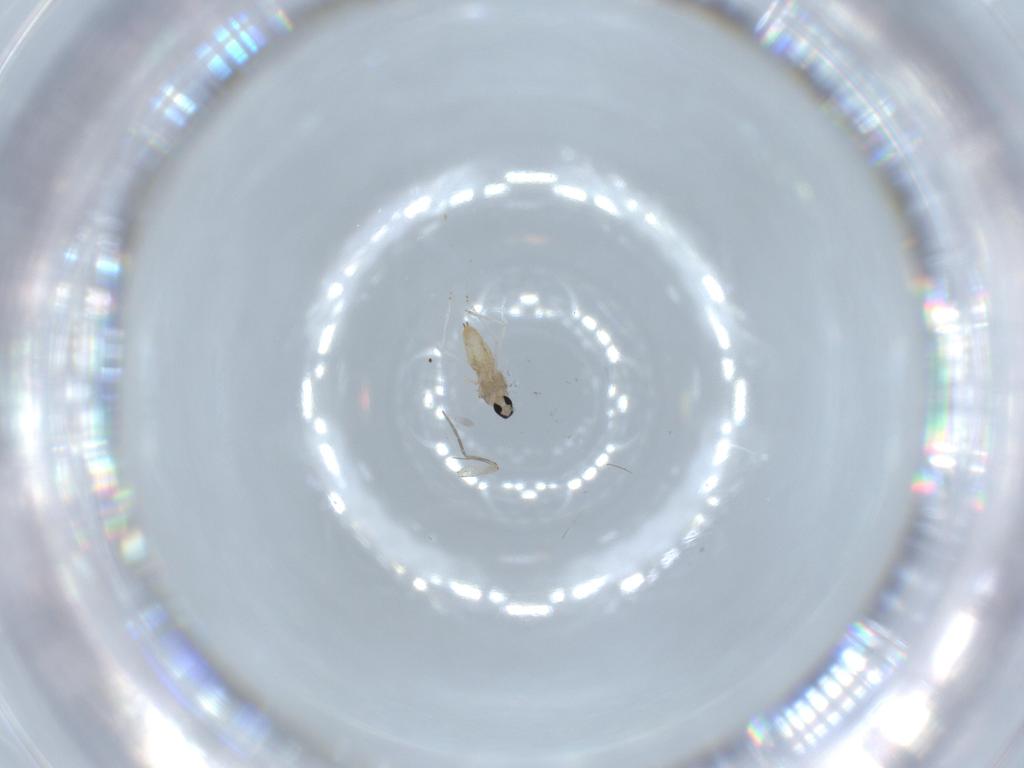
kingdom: Animalia
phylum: Arthropoda
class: Insecta
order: Diptera
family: Cecidomyiidae
